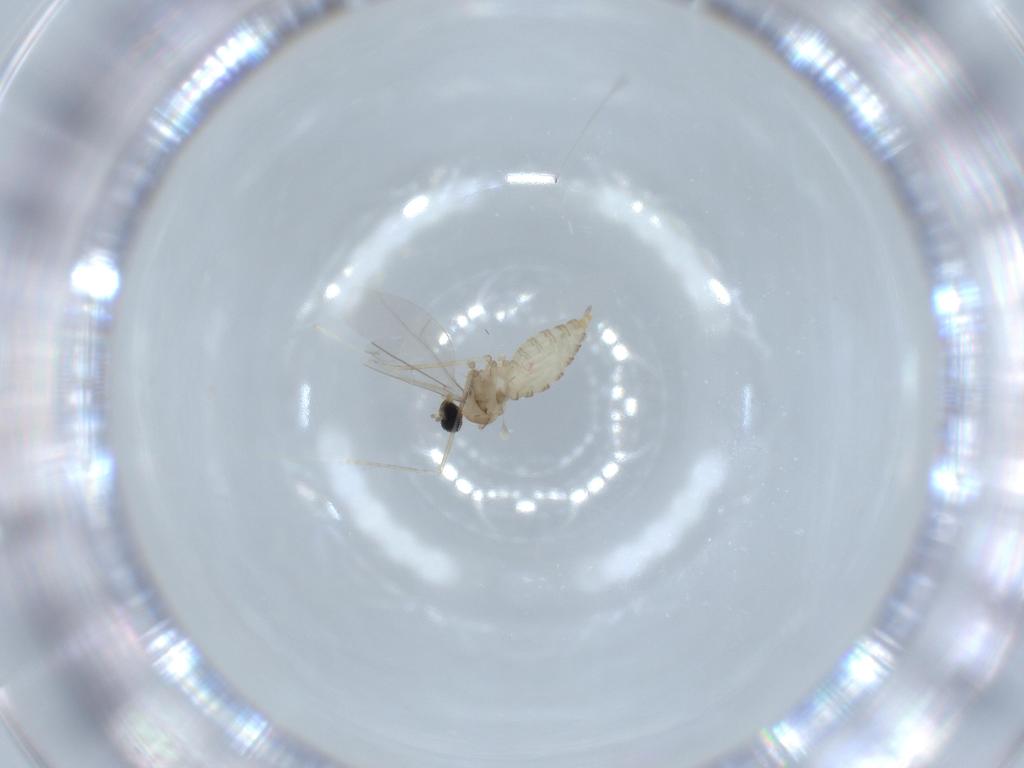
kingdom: Animalia
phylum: Arthropoda
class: Insecta
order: Diptera
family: Cecidomyiidae
